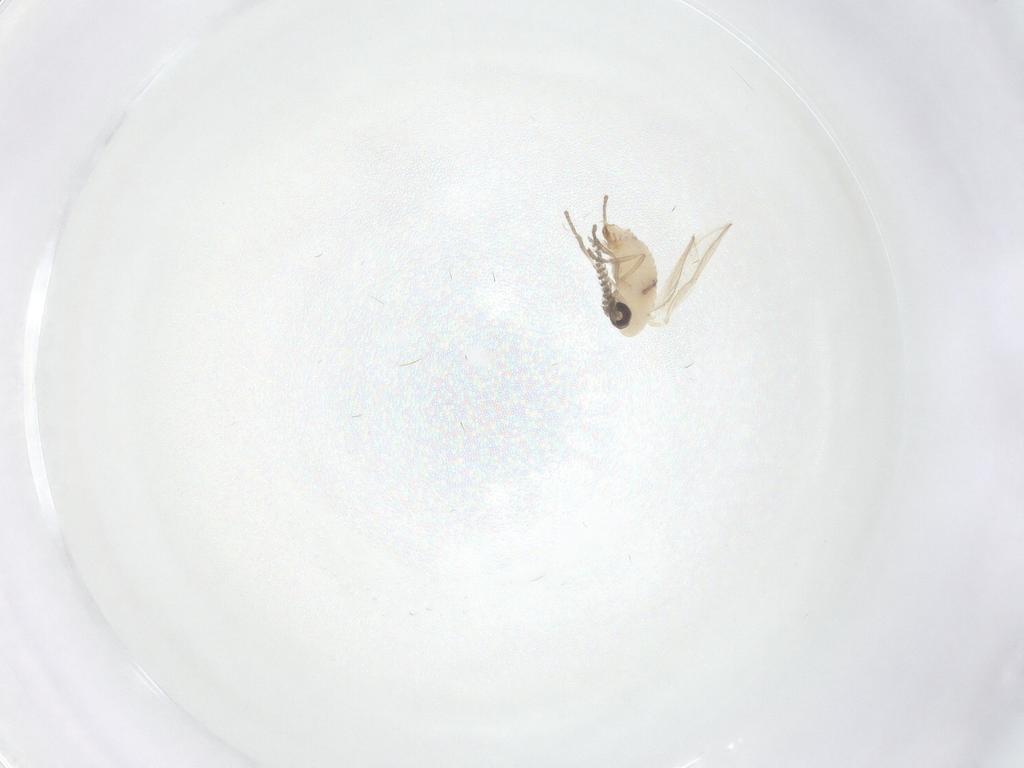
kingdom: Animalia
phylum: Arthropoda
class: Insecta
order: Diptera
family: Psychodidae
